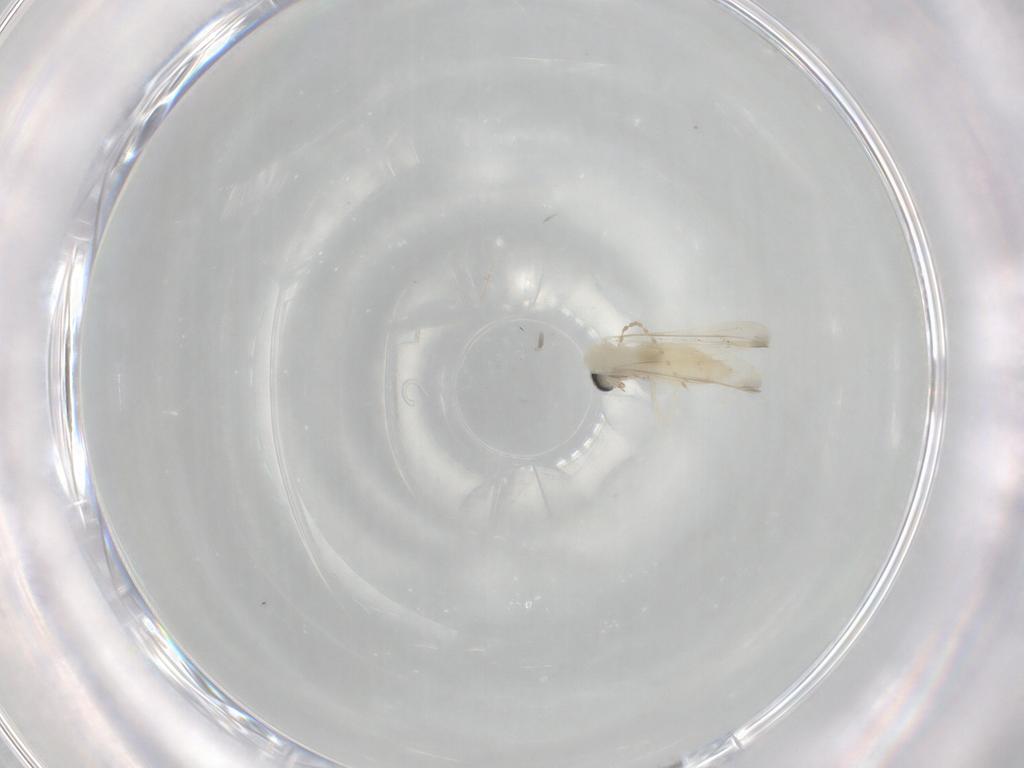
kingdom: Animalia
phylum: Arthropoda
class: Insecta
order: Diptera
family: Cecidomyiidae
